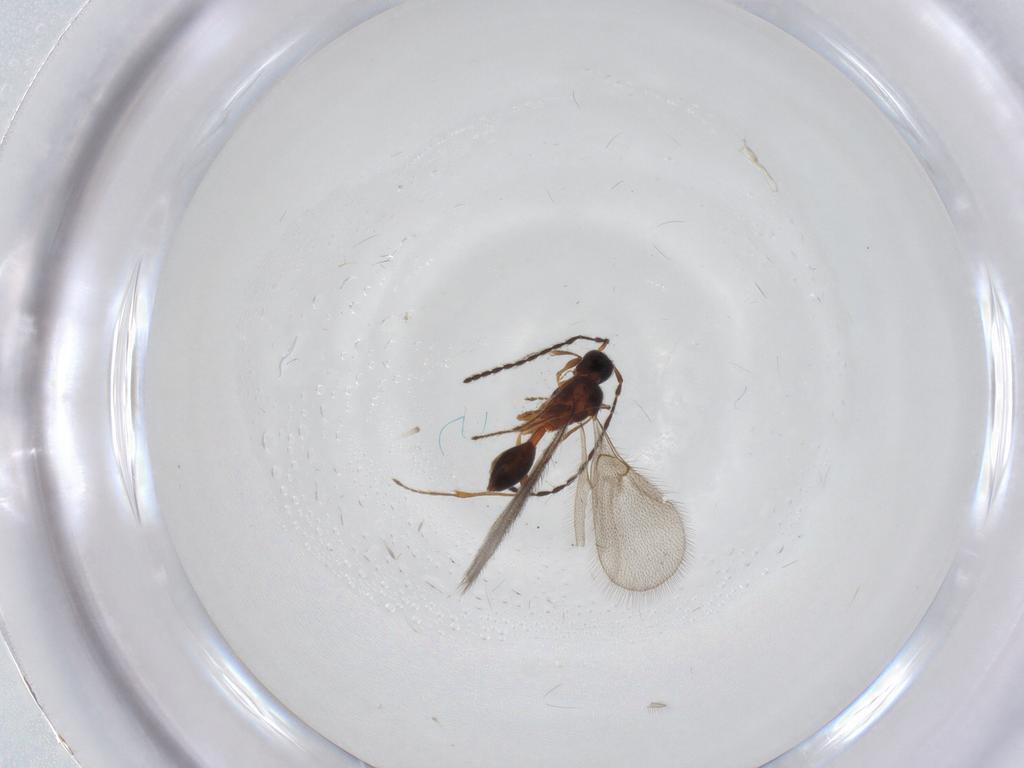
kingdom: Animalia
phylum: Arthropoda
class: Insecta
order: Hymenoptera
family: Diapriidae
